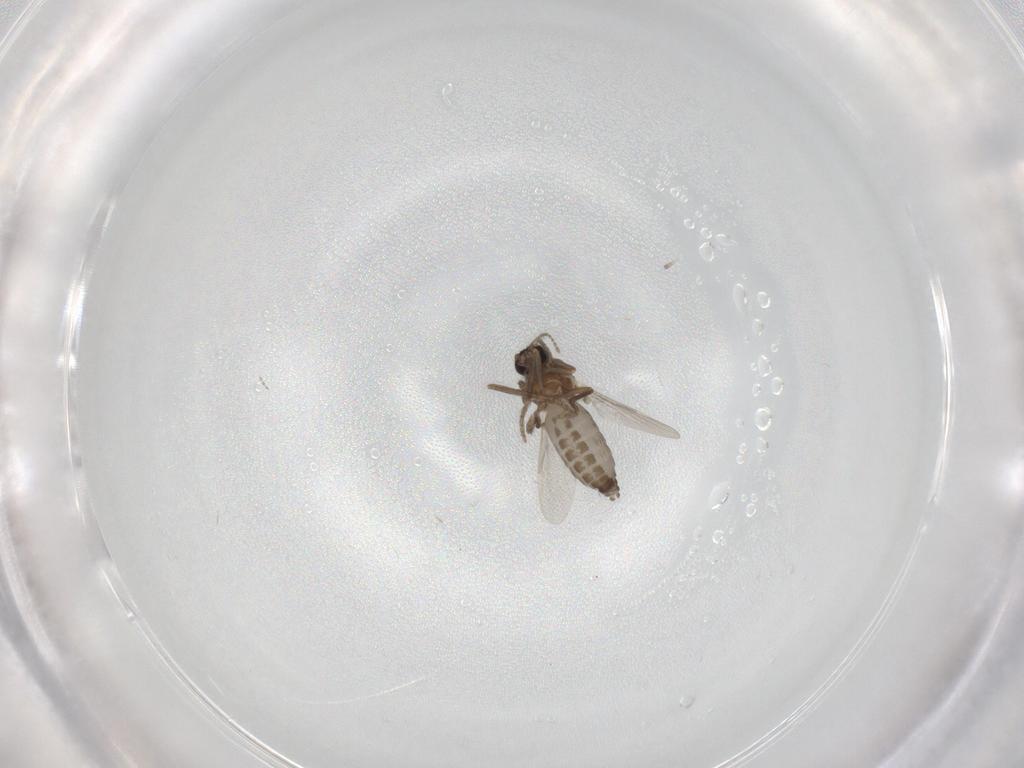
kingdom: Animalia
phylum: Arthropoda
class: Insecta
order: Diptera
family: Ceratopogonidae
